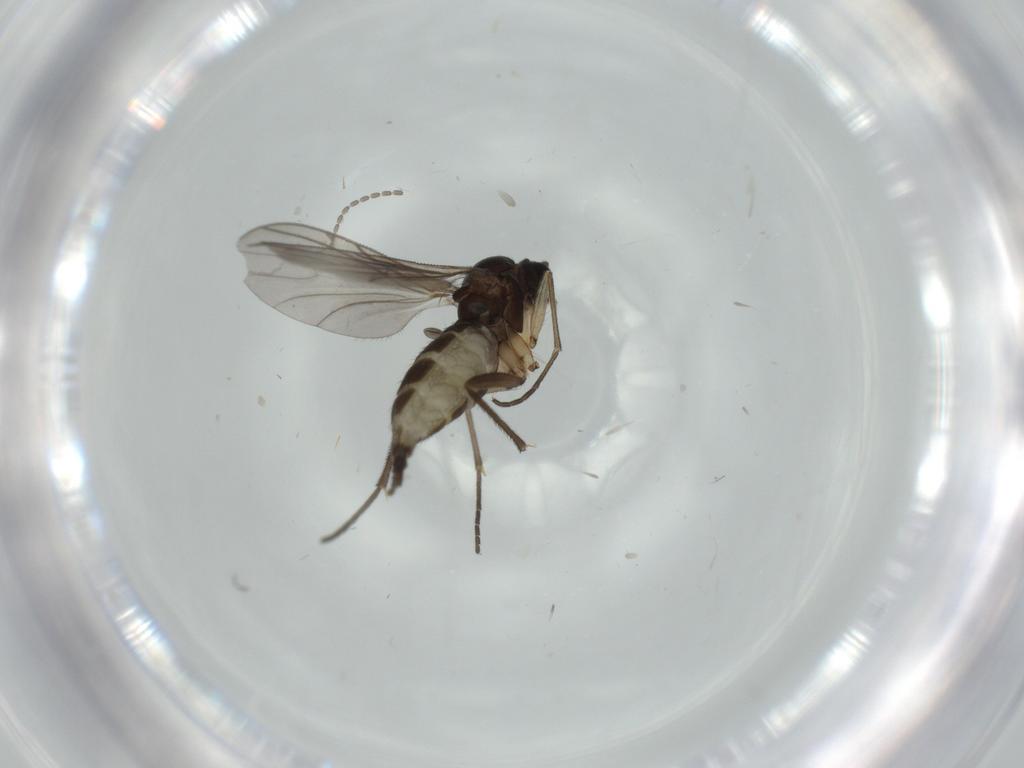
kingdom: Animalia
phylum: Arthropoda
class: Insecta
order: Diptera
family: Sciaridae
